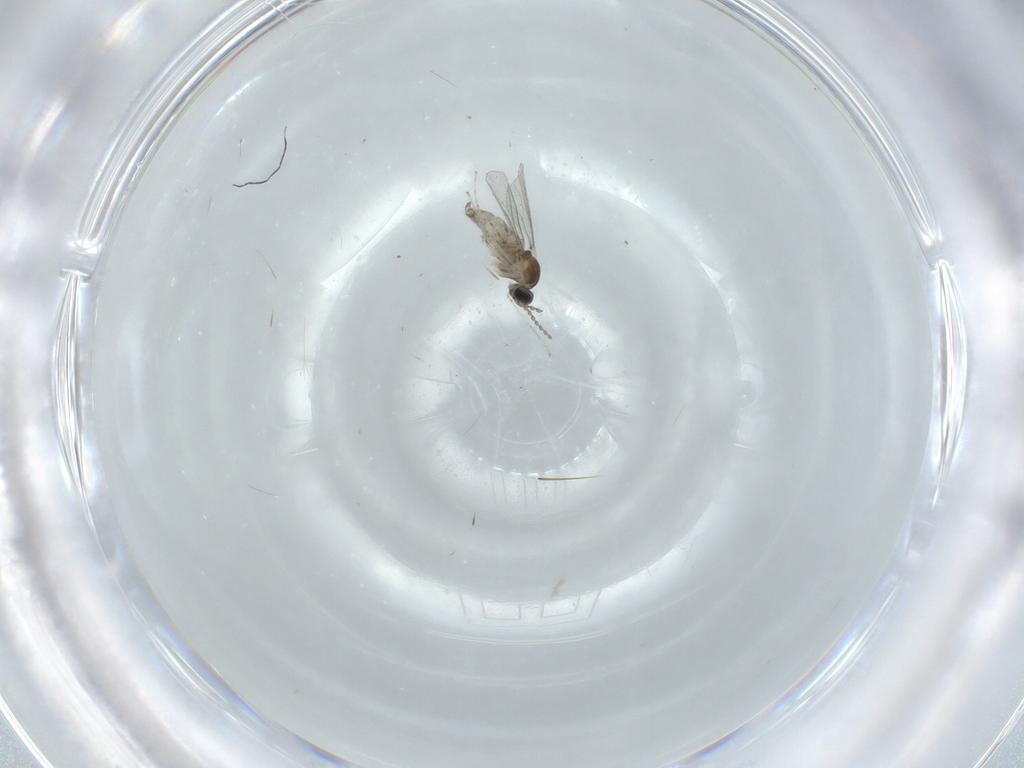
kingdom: Animalia
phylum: Arthropoda
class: Insecta
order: Diptera
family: Cecidomyiidae
